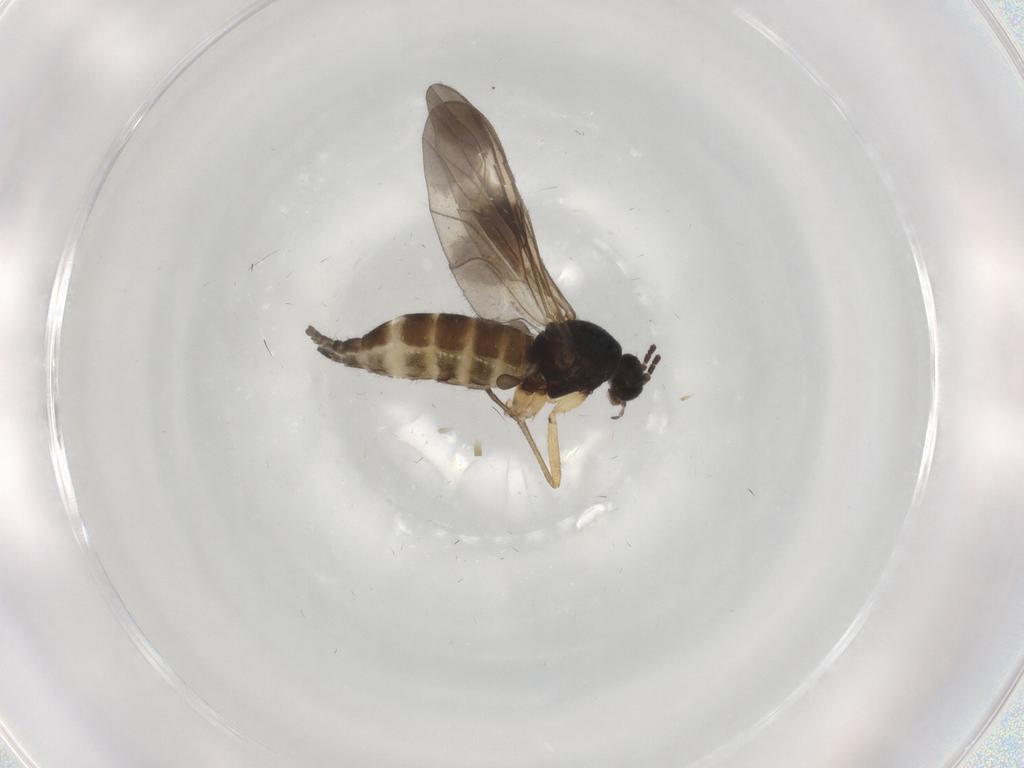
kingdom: Animalia
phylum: Arthropoda
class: Insecta
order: Diptera
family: Sciaridae
